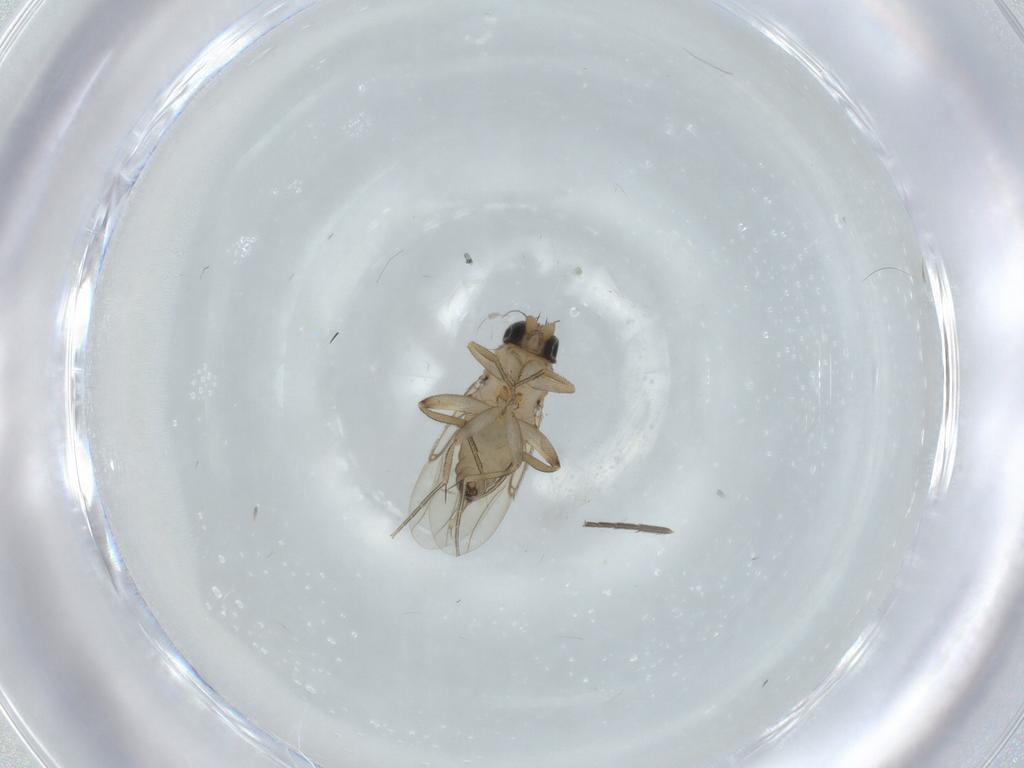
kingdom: Animalia
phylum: Arthropoda
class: Insecta
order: Diptera
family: Phoridae
